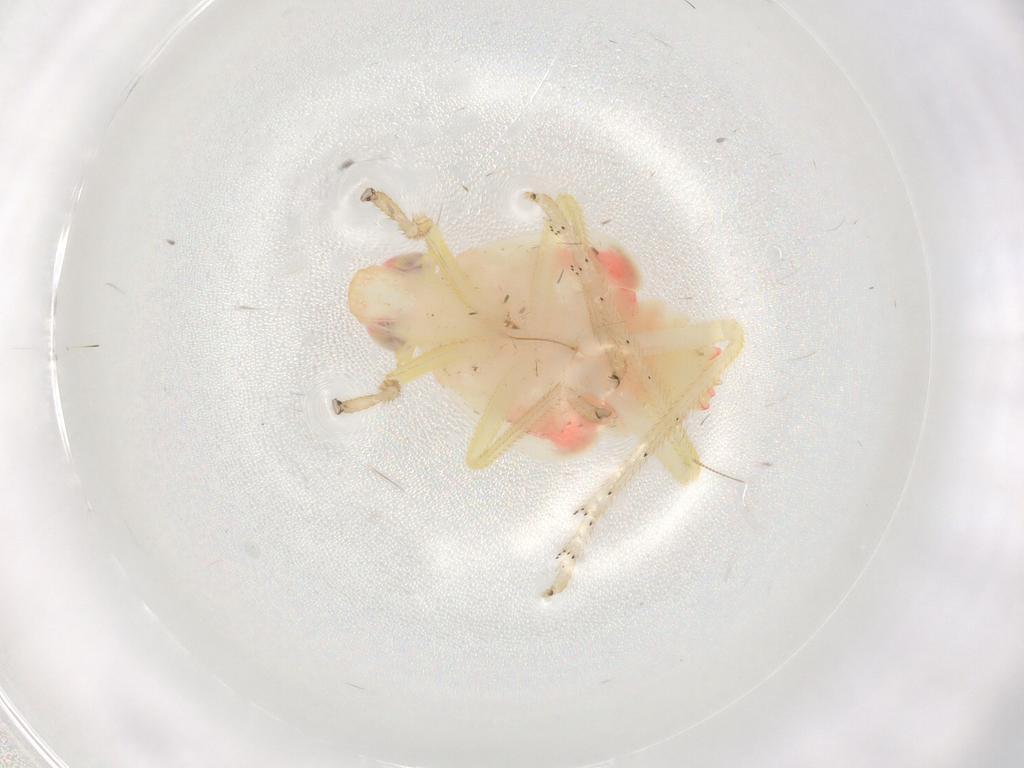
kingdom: Animalia
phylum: Arthropoda
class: Insecta
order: Hemiptera
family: Tropiduchidae
